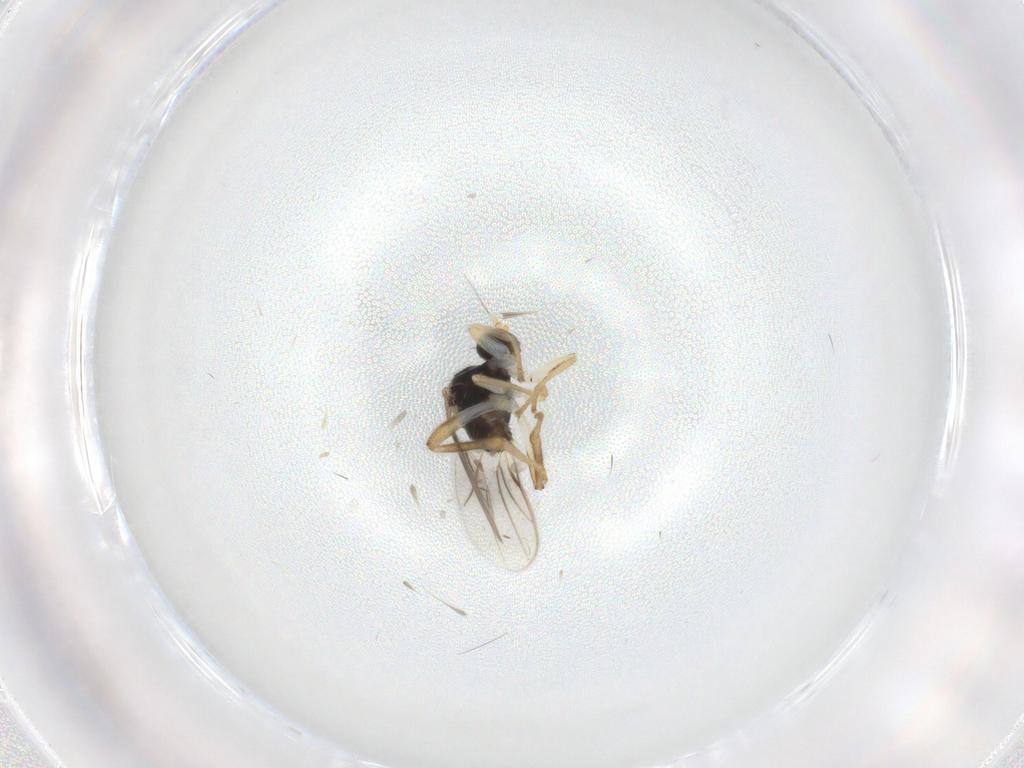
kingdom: Animalia
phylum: Arthropoda
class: Insecta
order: Diptera
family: Hybotidae
